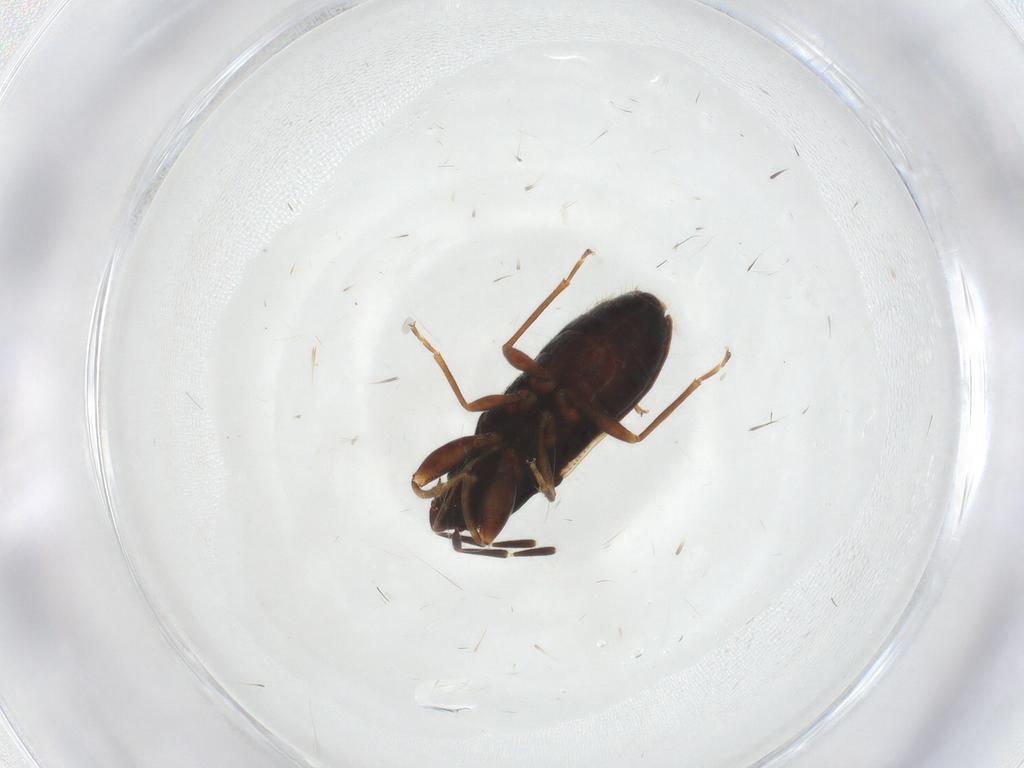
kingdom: Animalia
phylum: Arthropoda
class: Insecta
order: Hemiptera
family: Rhyparochromidae
